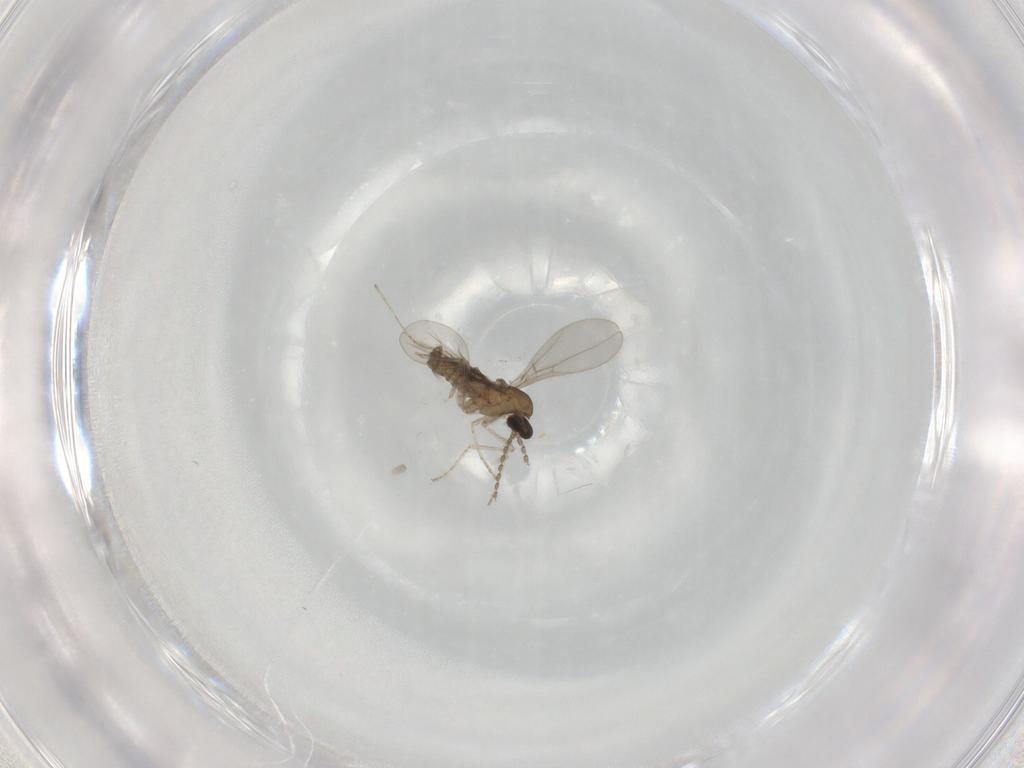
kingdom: Animalia
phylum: Arthropoda
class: Insecta
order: Diptera
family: Cecidomyiidae
